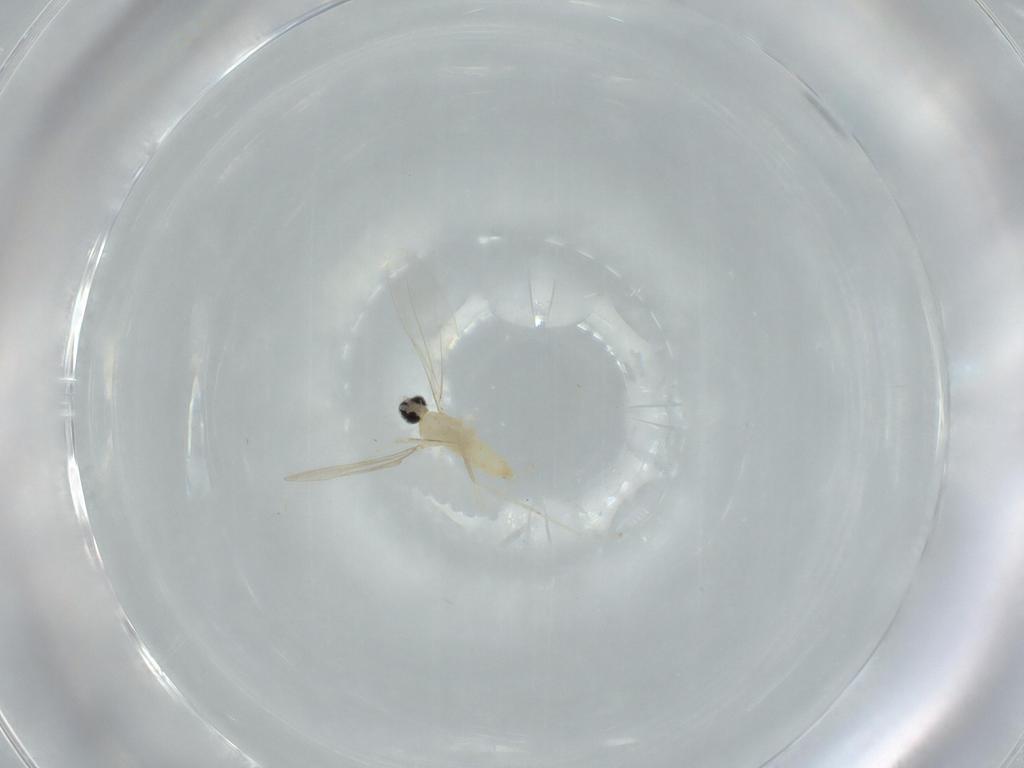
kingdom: Animalia
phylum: Arthropoda
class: Insecta
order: Diptera
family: Cecidomyiidae
